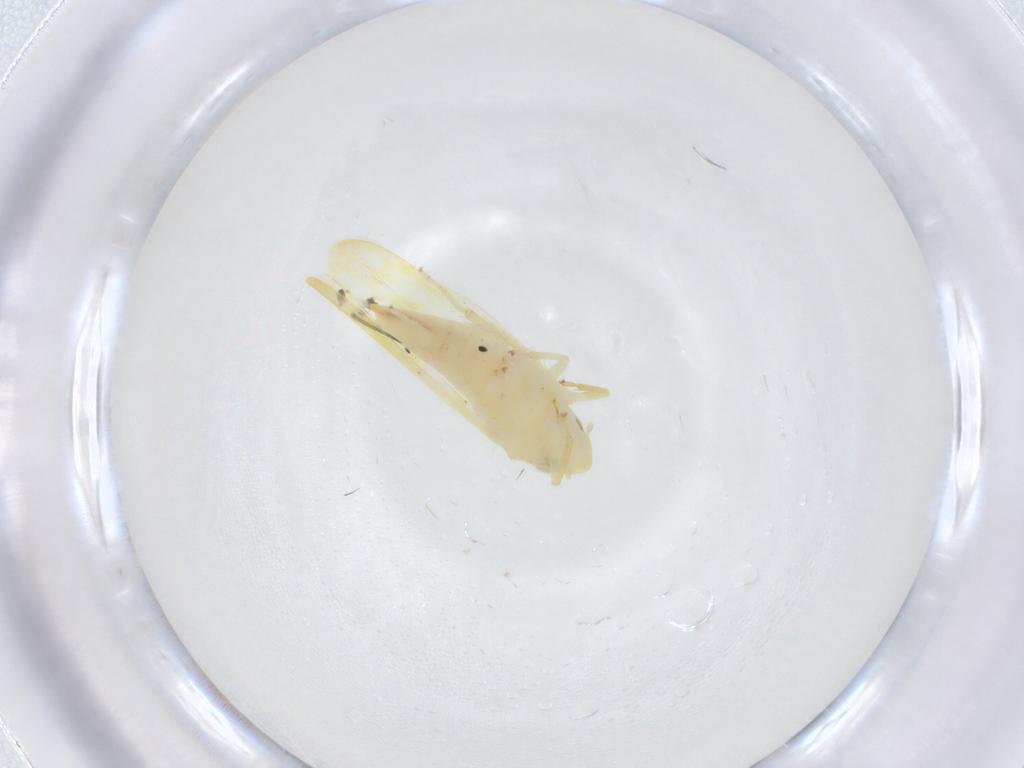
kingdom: Animalia
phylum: Arthropoda
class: Insecta
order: Hemiptera
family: Cicadellidae
